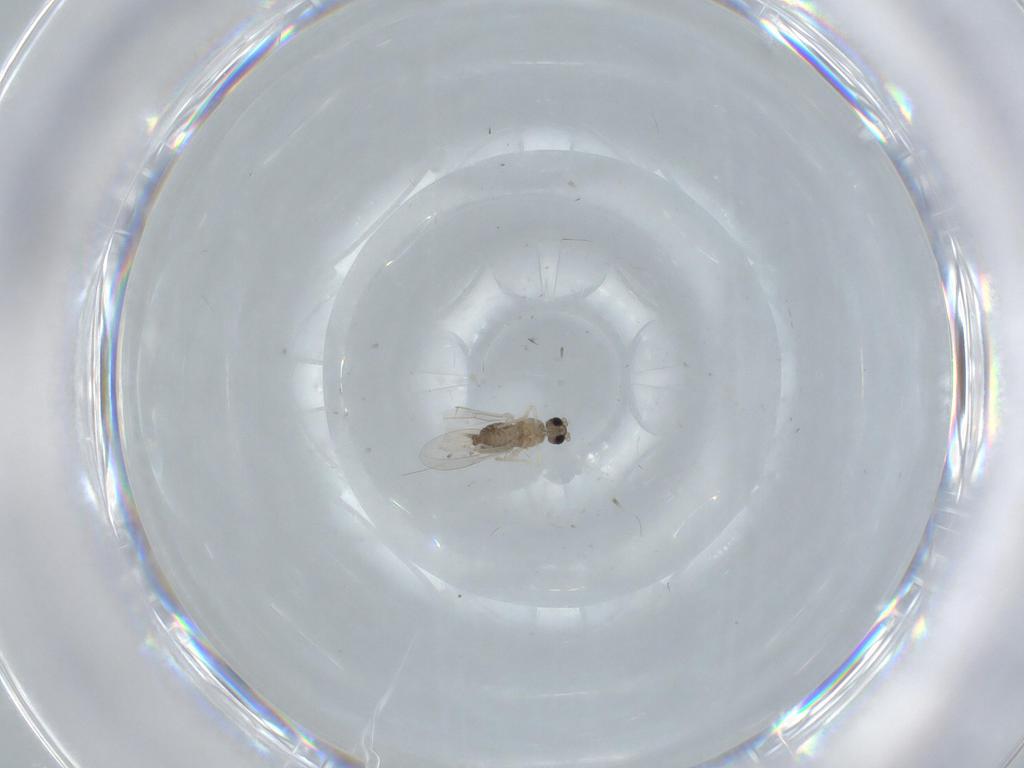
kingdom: Animalia
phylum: Arthropoda
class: Insecta
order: Diptera
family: Cecidomyiidae
